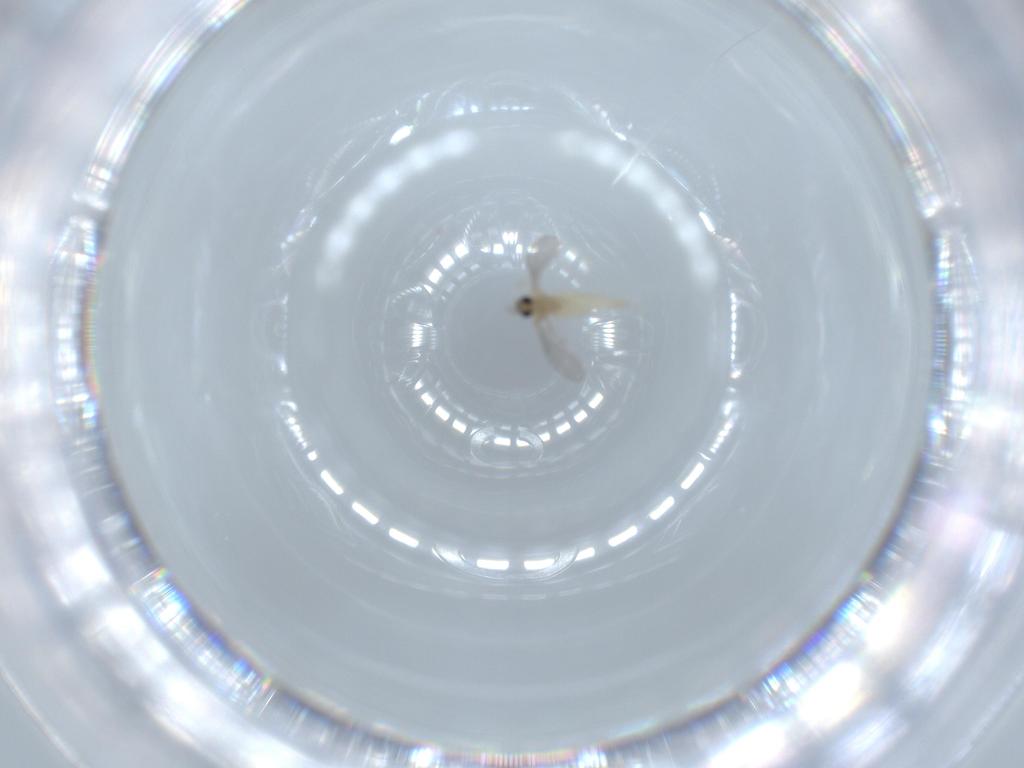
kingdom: Animalia
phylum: Arthropoda
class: Insecta
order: Diptera
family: Cecidomyiidae
